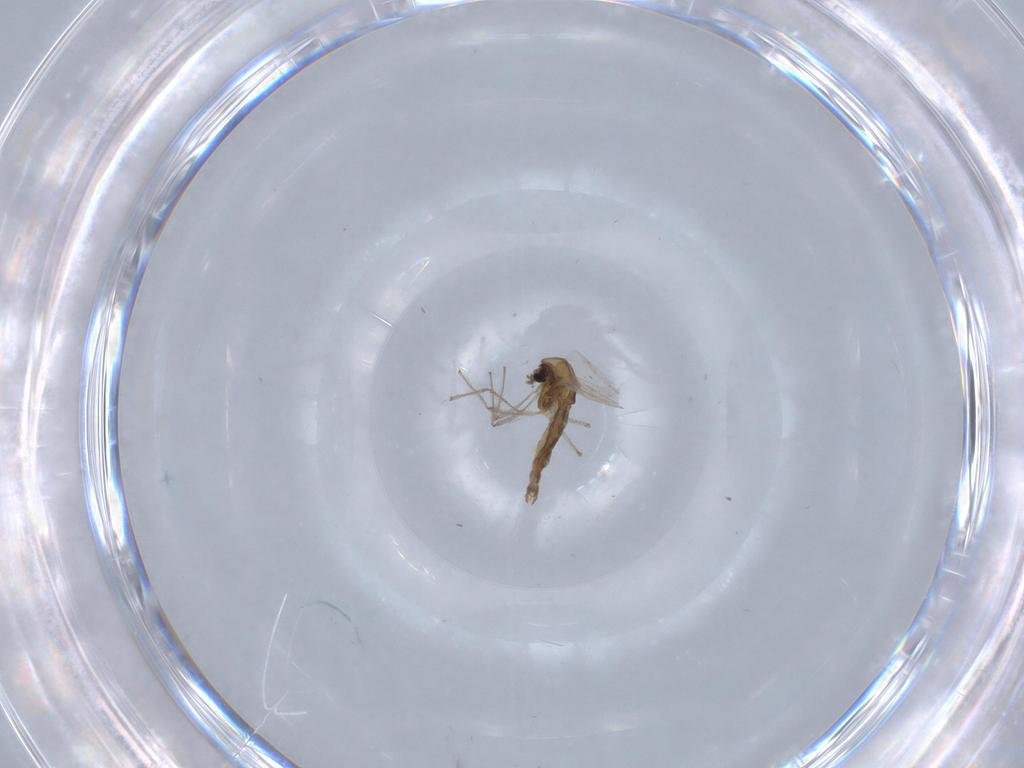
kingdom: Animalia
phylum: Arthropoda
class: Insecta
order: Diptera
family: Chironomidae
